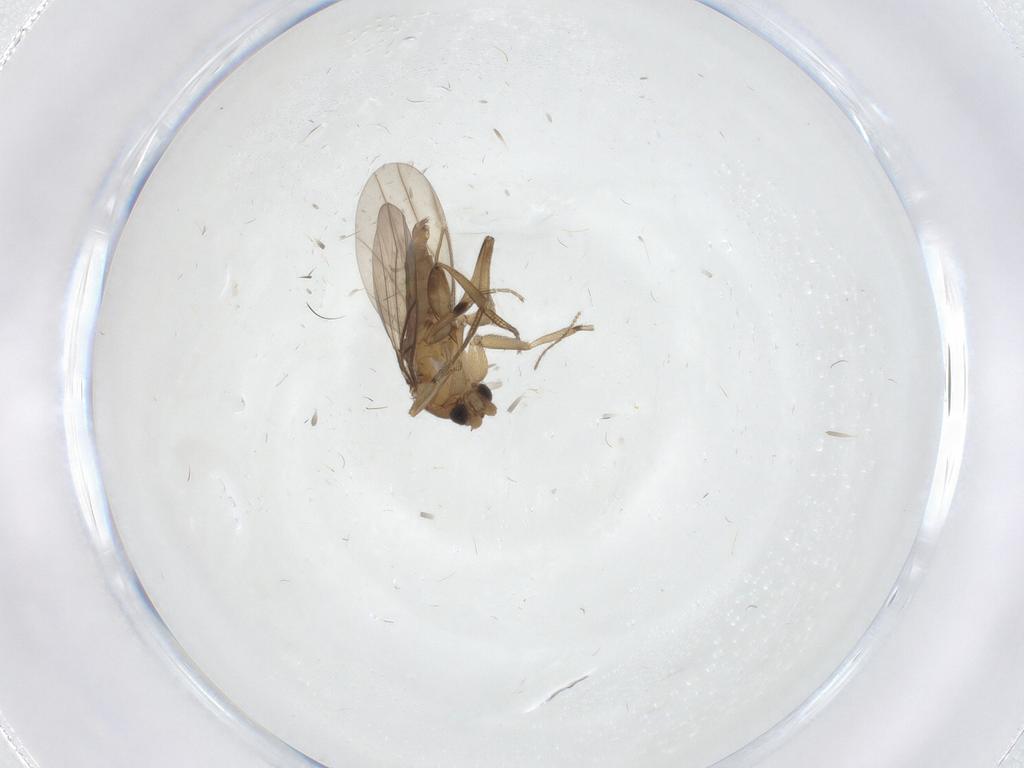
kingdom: Animalia
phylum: Arthropoda
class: Insecta
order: Diptera
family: Phoridae
